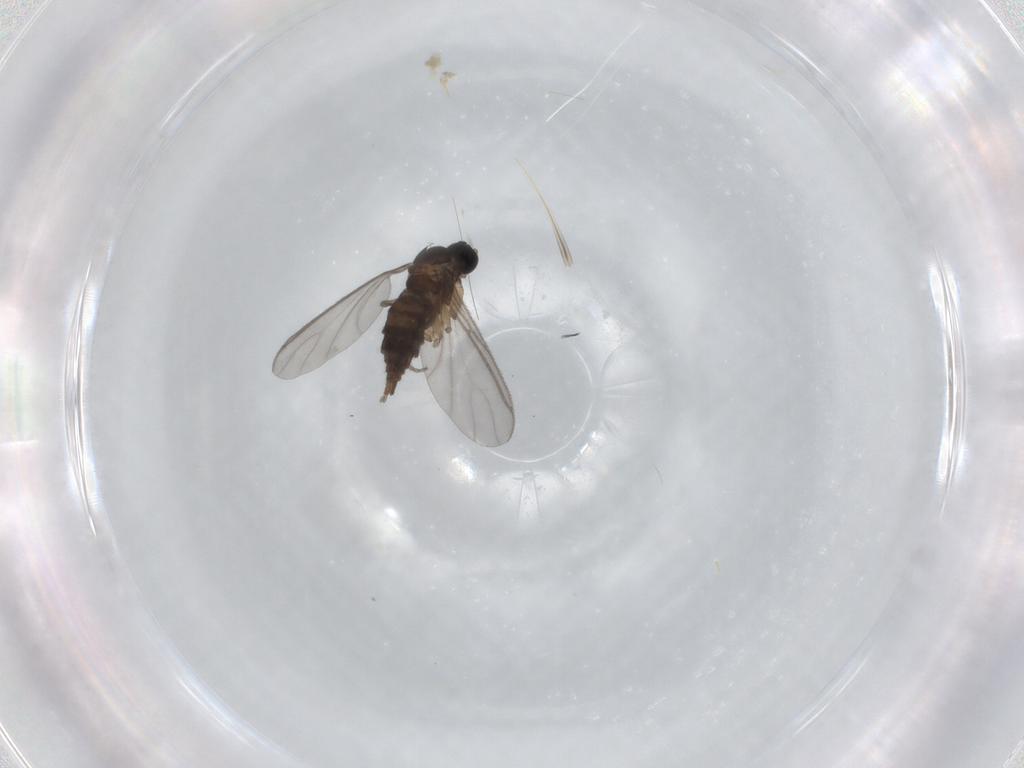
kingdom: Animalia
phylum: Arthropoda
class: Insecta
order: Diptera
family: Sciaridae
